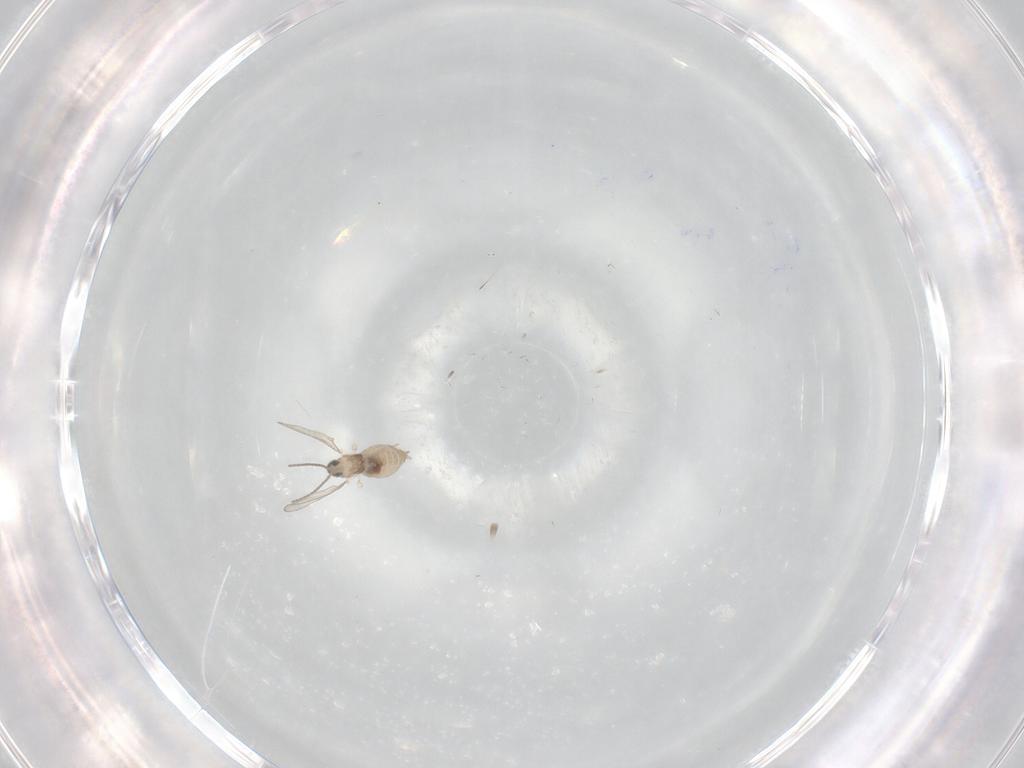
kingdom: Animalia
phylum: Arthropoda
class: Insecta
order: Diptera
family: Cecidomyiidae
